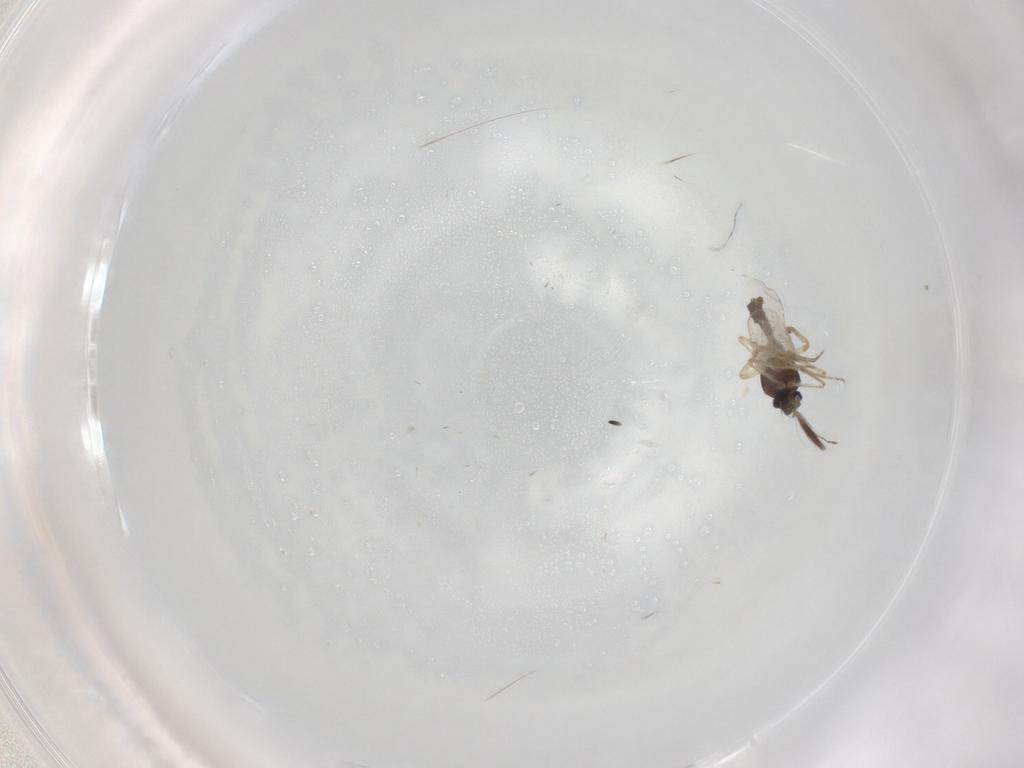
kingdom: Animalia
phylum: Arthropoda
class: Insecta
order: Diptera
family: Ceratopogonidae
